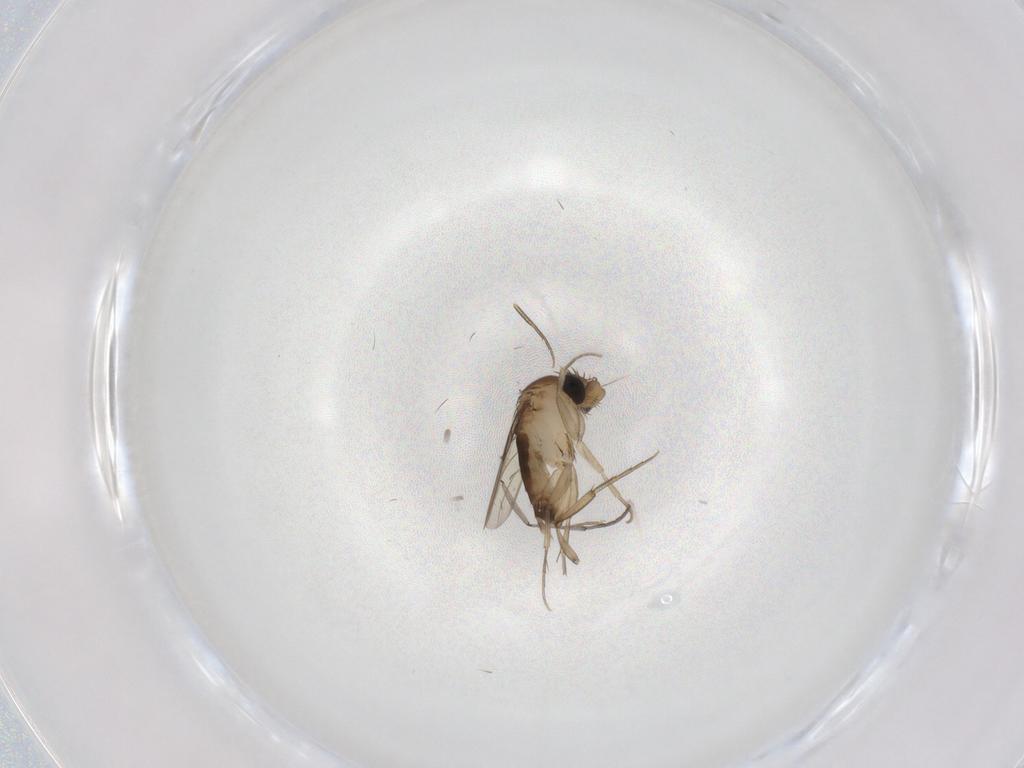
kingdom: Animalia
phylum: Arthropoda
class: Insecta
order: Diptera
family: Phoridae
